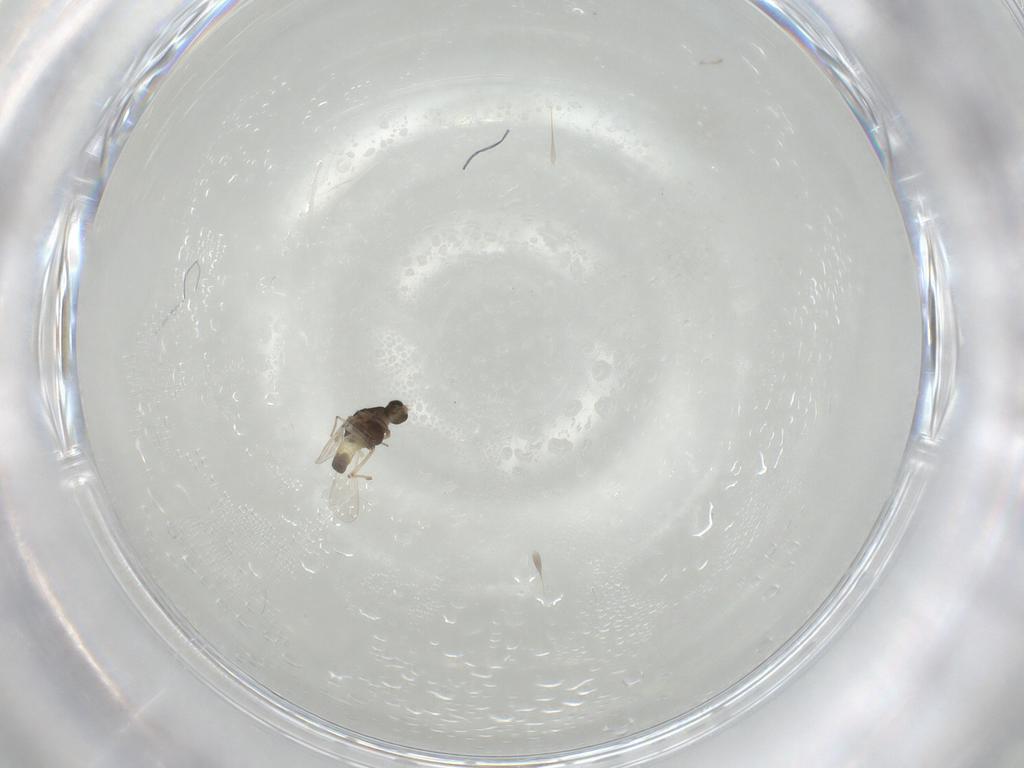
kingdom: Animalia
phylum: Arthropoda
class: Insecta
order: Diptera
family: Chironomidae
